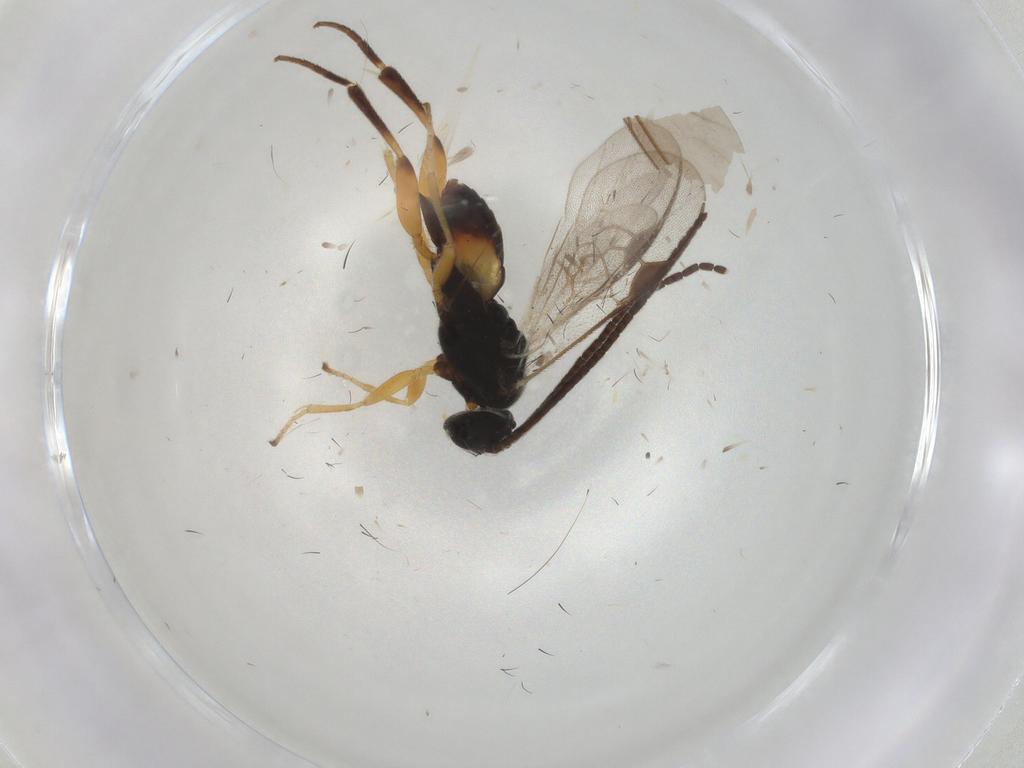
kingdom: Animalia
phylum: Arthropoda
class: Insecta
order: Hymenoptera
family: Braconidae
